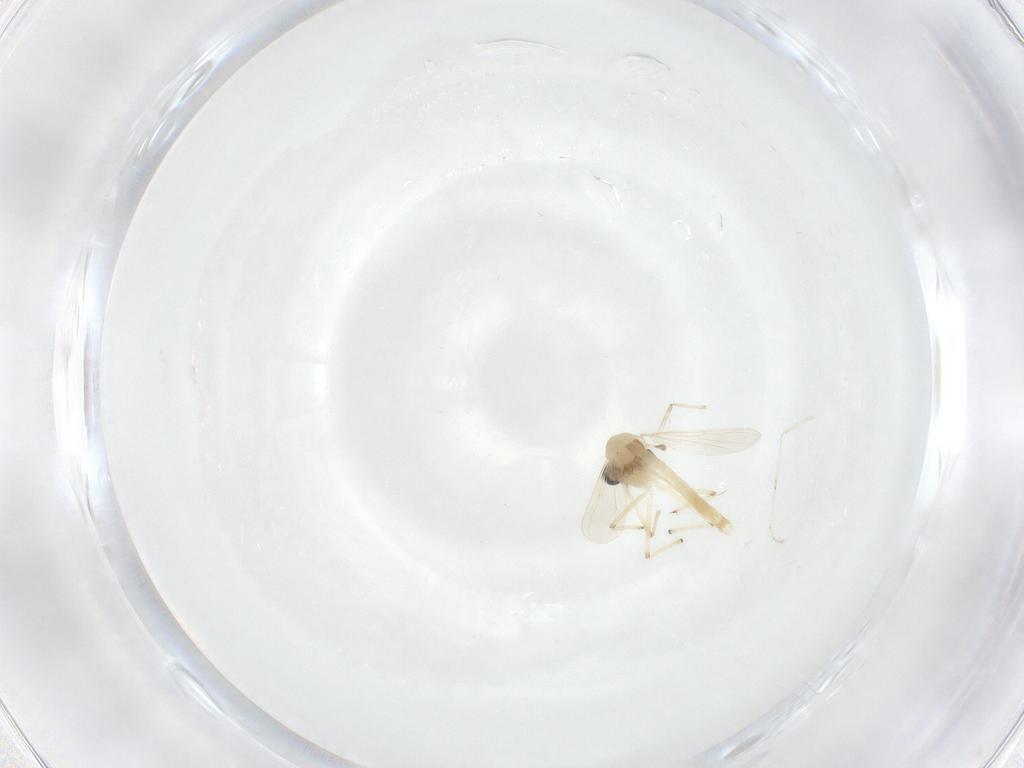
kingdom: Animalia
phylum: Arthropoda
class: Insecta
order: Diptera
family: Chironomidae
